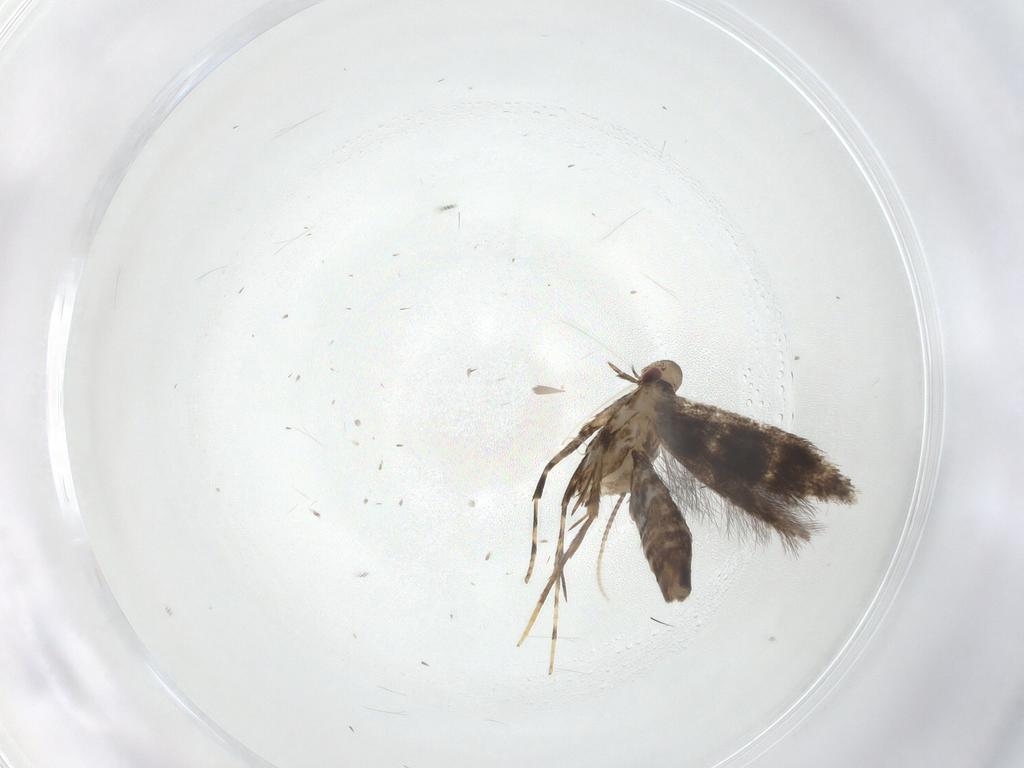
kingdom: Animalia
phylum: Arthropoda
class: Insecta
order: Lepidoptera
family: Gracillariidae
